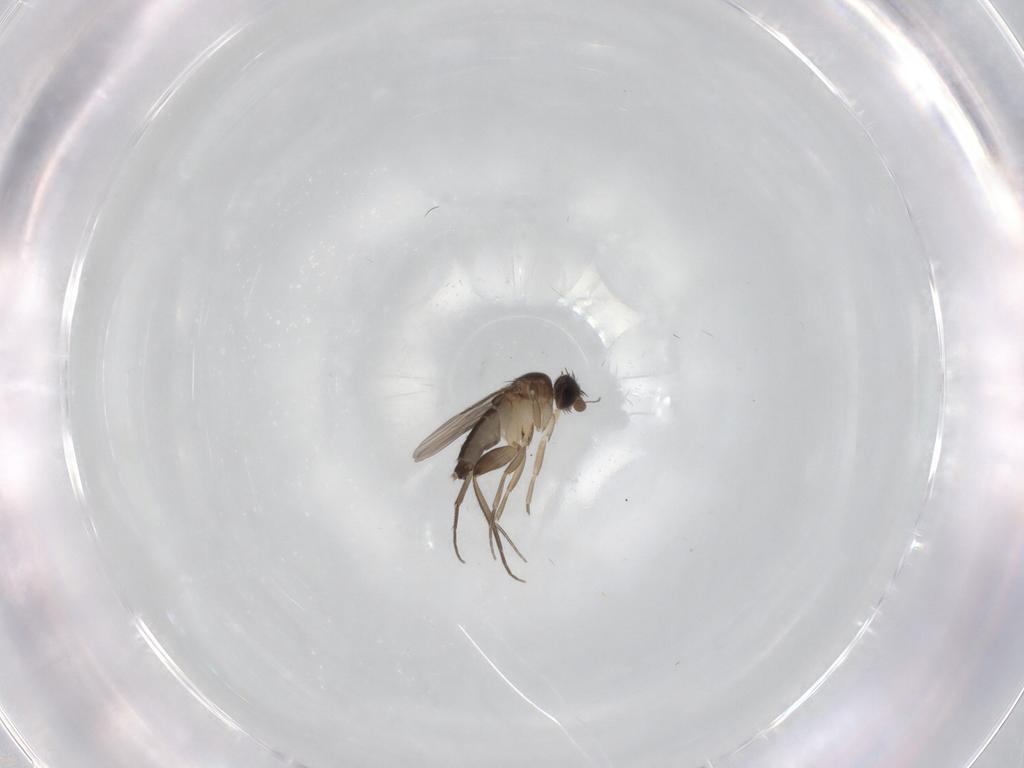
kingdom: Animalia
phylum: Arthropoda
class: Insecta
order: Diptera
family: Phoridae
